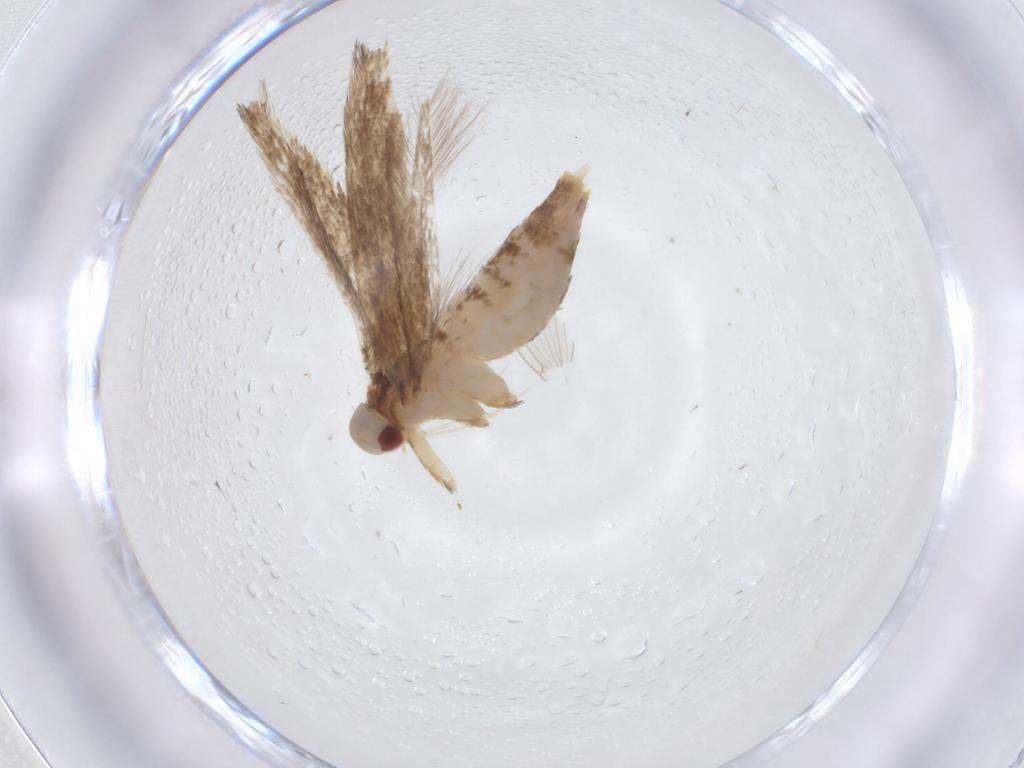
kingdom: Animalia
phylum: Arthropoda
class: Insecta
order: Lepidoptera
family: Cosmopterigidae
